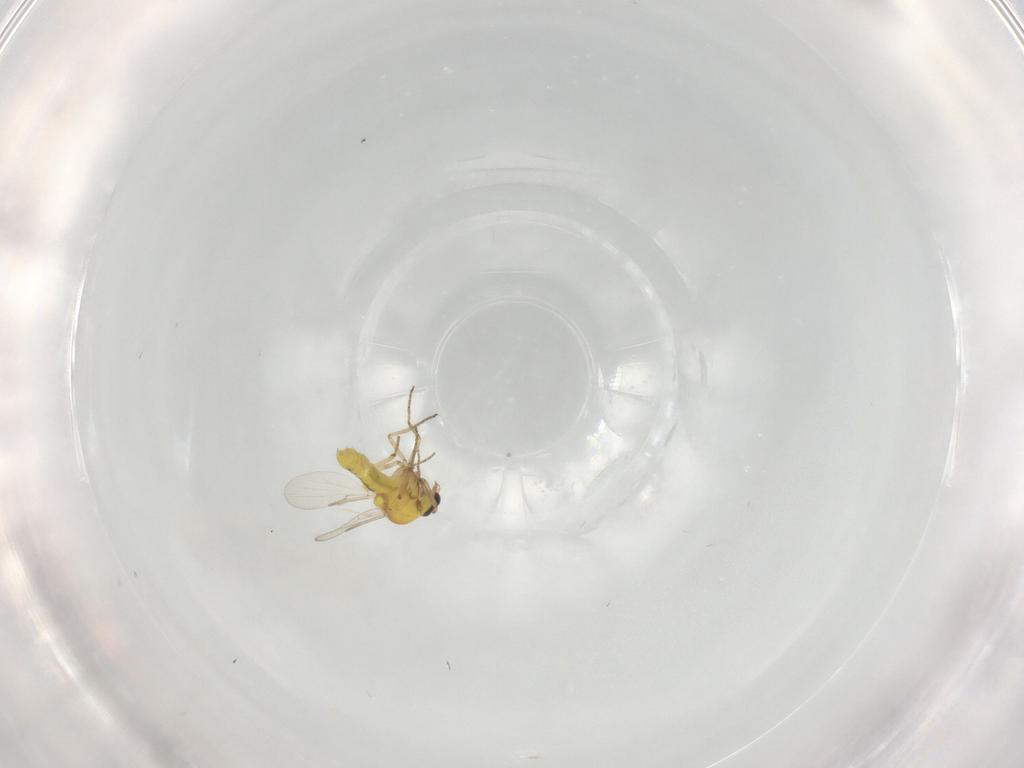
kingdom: Animalia
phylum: Arthropoda
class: Insecta
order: Diptera
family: Ceratopogonidae
